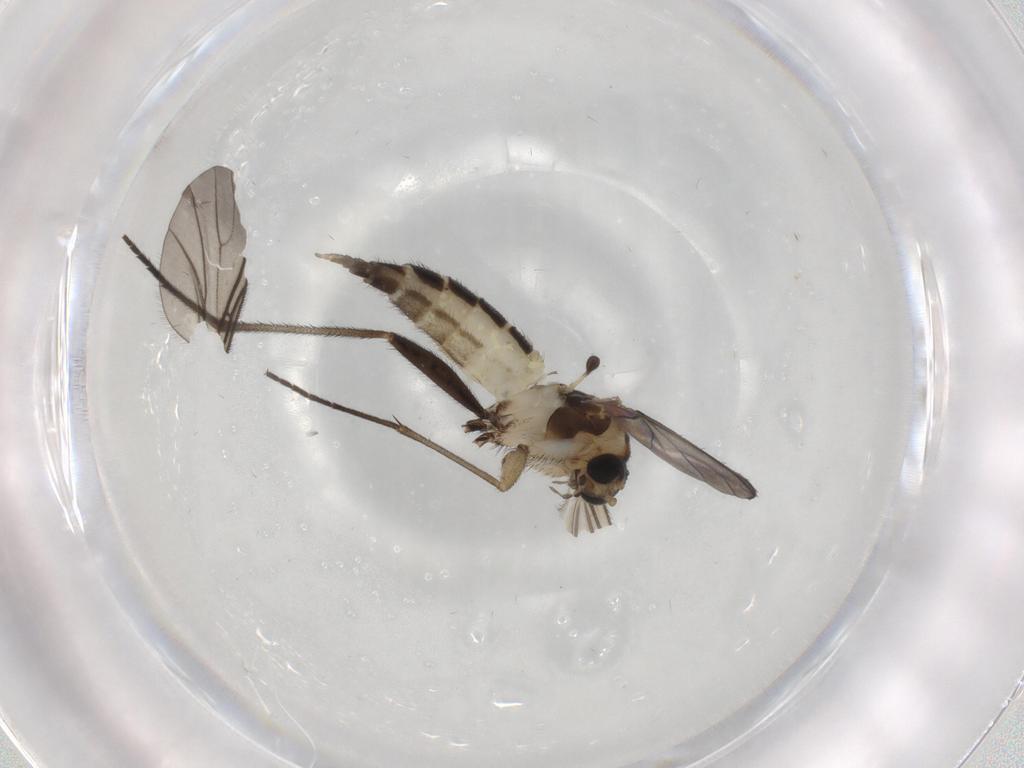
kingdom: Animalia
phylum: Arthropoda
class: Insecta
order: Diptera
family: Sciaridae
